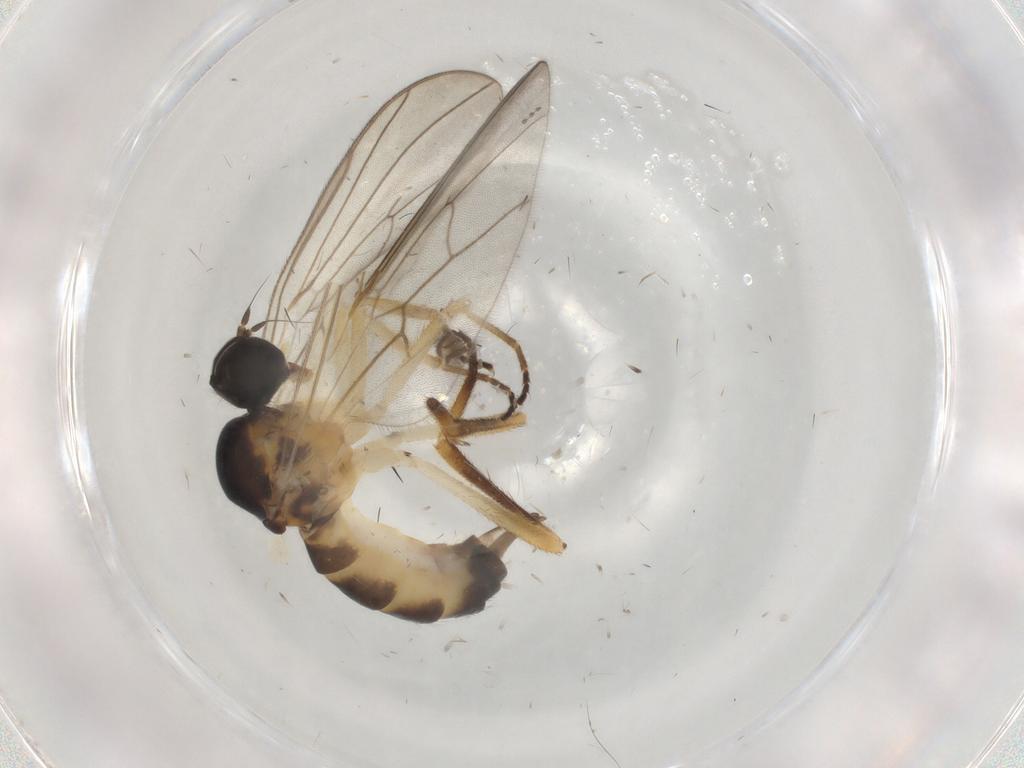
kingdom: Animalia
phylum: Arthropoda
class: Insecta
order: Diptera
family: Hybotidae
